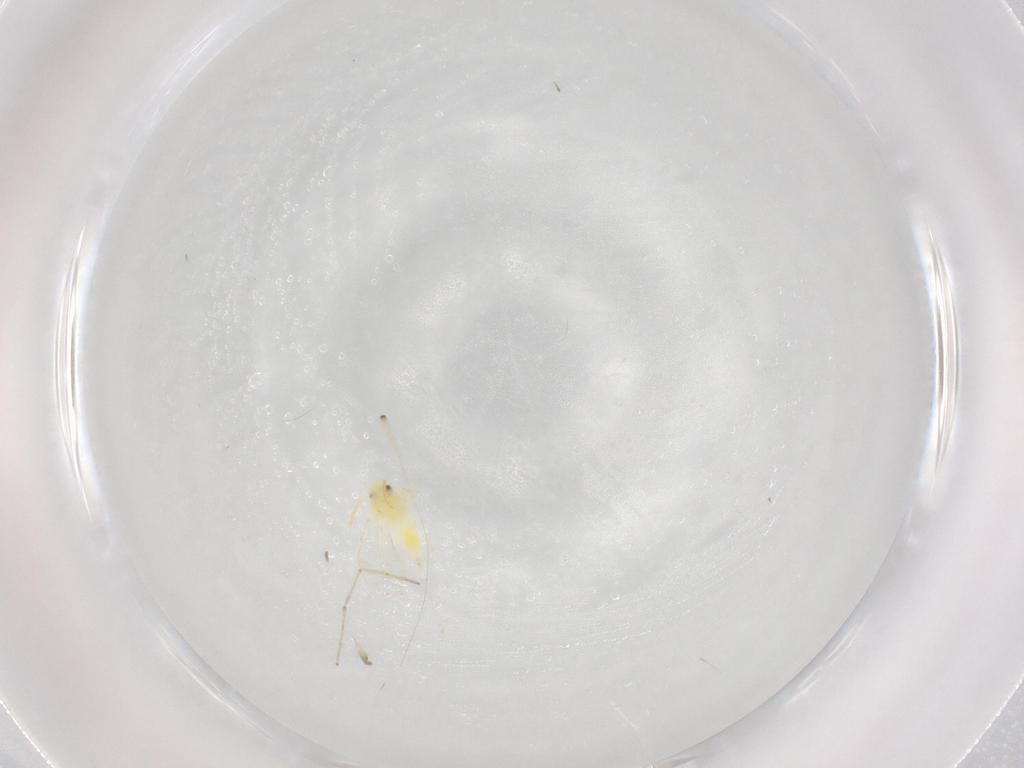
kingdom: Animalia
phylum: Arthropoda
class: Insecta
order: Hemiptera
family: Aleyrodidae
